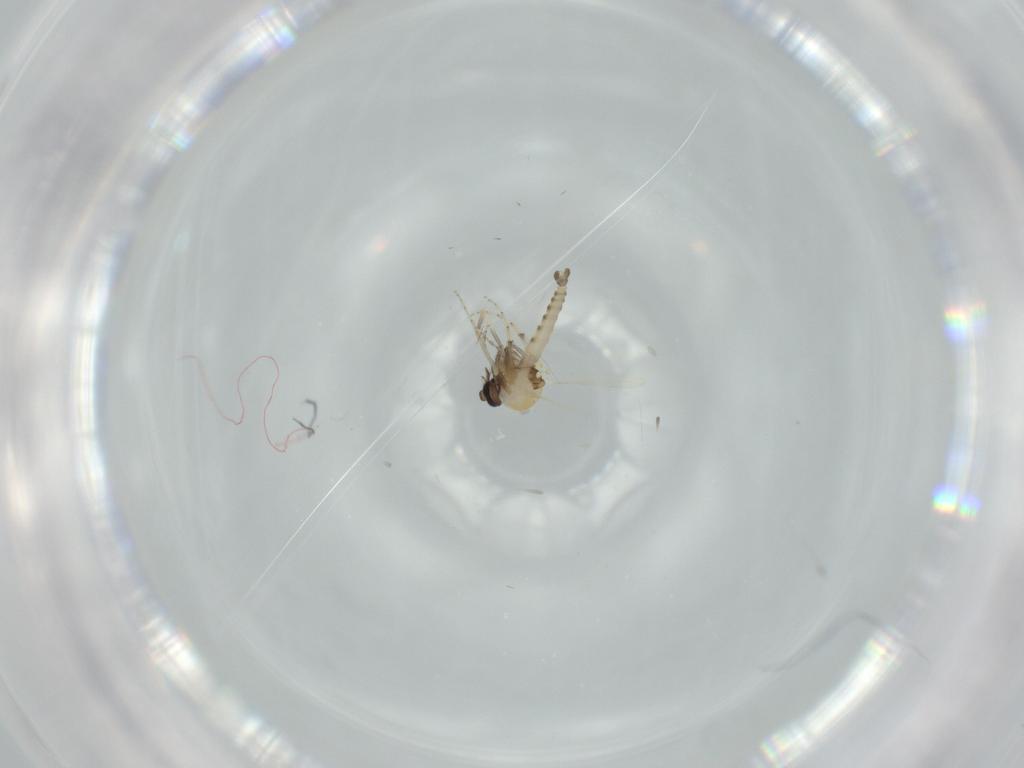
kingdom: Animalia
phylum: Arthropoda
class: Insecta
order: Diptera
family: Ceratopogonidae
